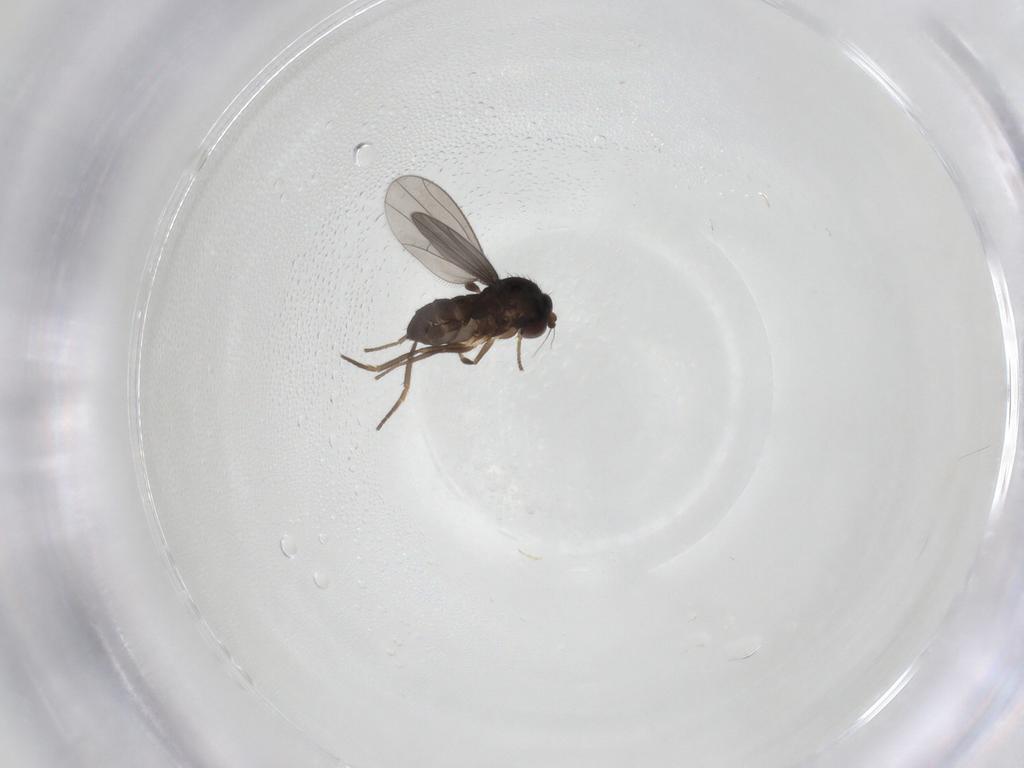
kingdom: Animalia
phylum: Arthropoda
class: Insecta
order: Diptera
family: Dolichopodidae
